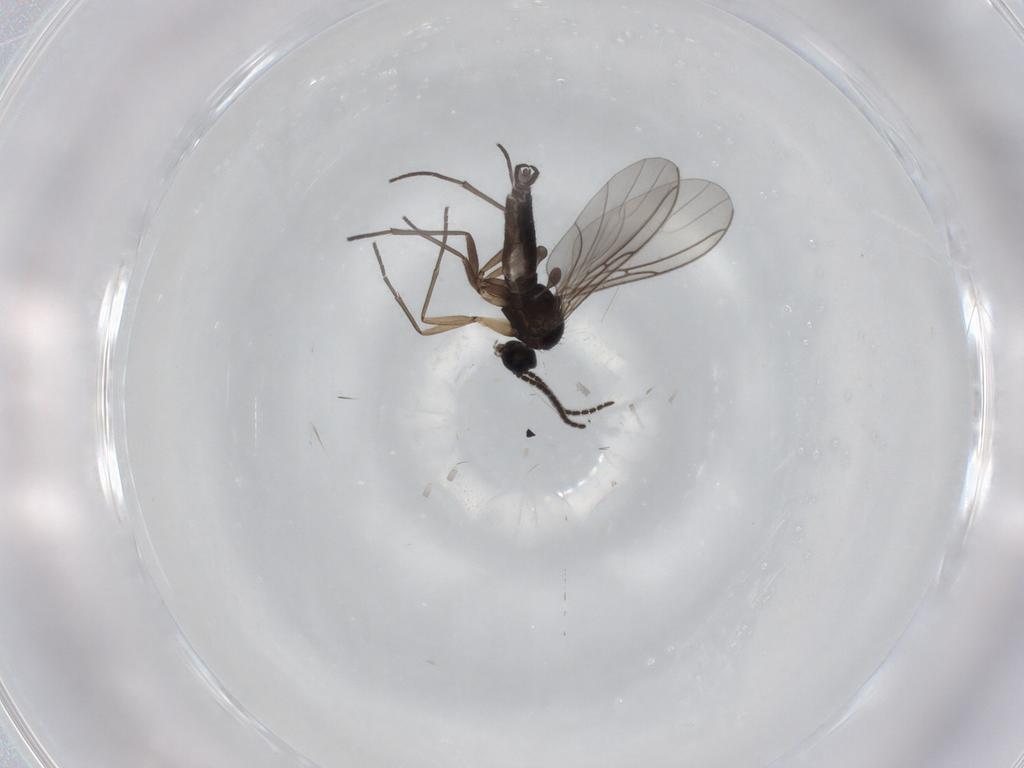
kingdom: Animalia
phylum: Arthropoda
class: Insecta
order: Diptera
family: Sciaridae
